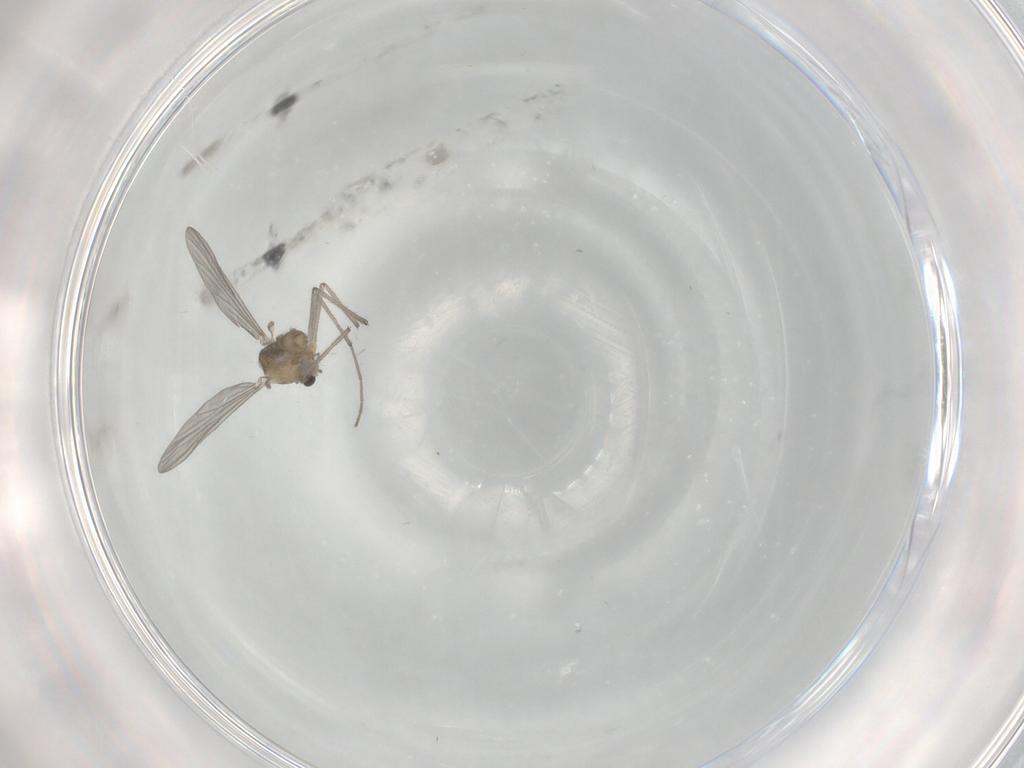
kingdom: Animalia
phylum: Arthropoda
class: Insecta
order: Diptera
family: Chironomidae
